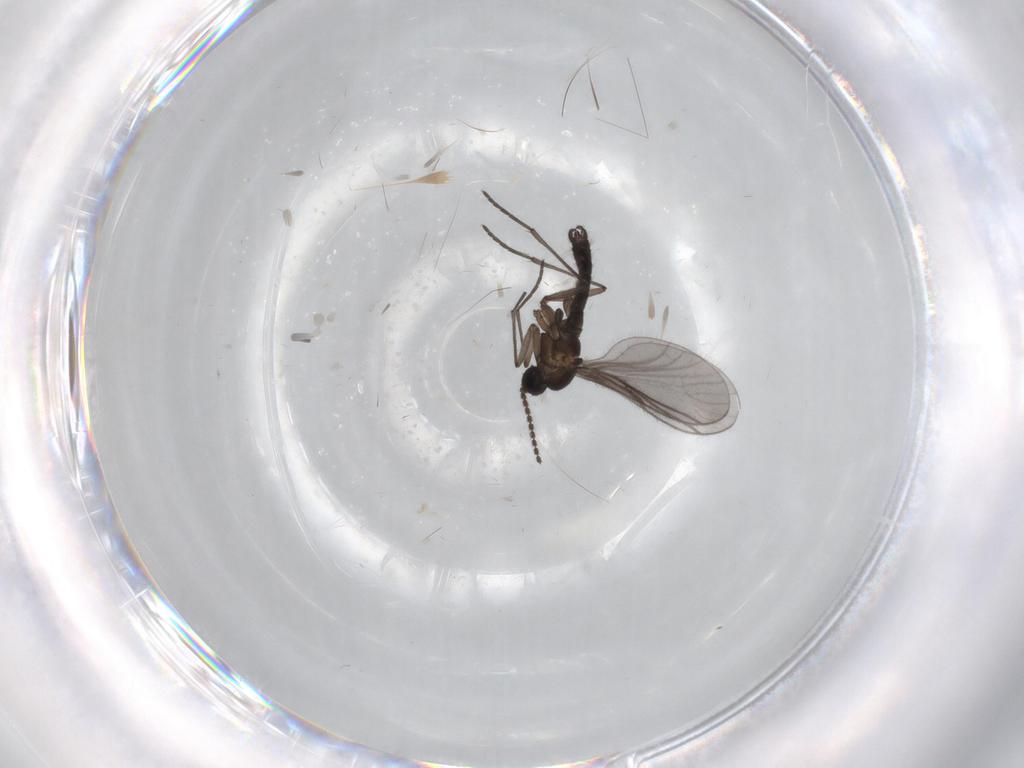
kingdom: Animalia
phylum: Arthropoda
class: Insecta
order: Diptera
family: Sciaridae
